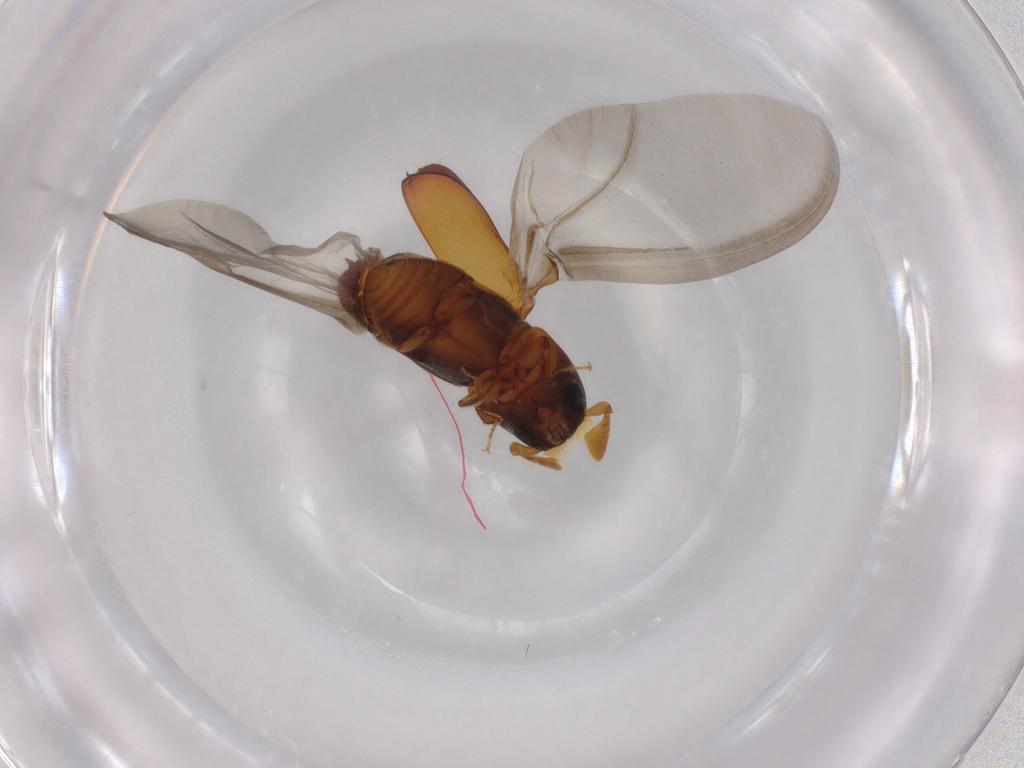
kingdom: Animalia
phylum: Arthropoda
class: Insecta
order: Coleoptera
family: Curculionidae
